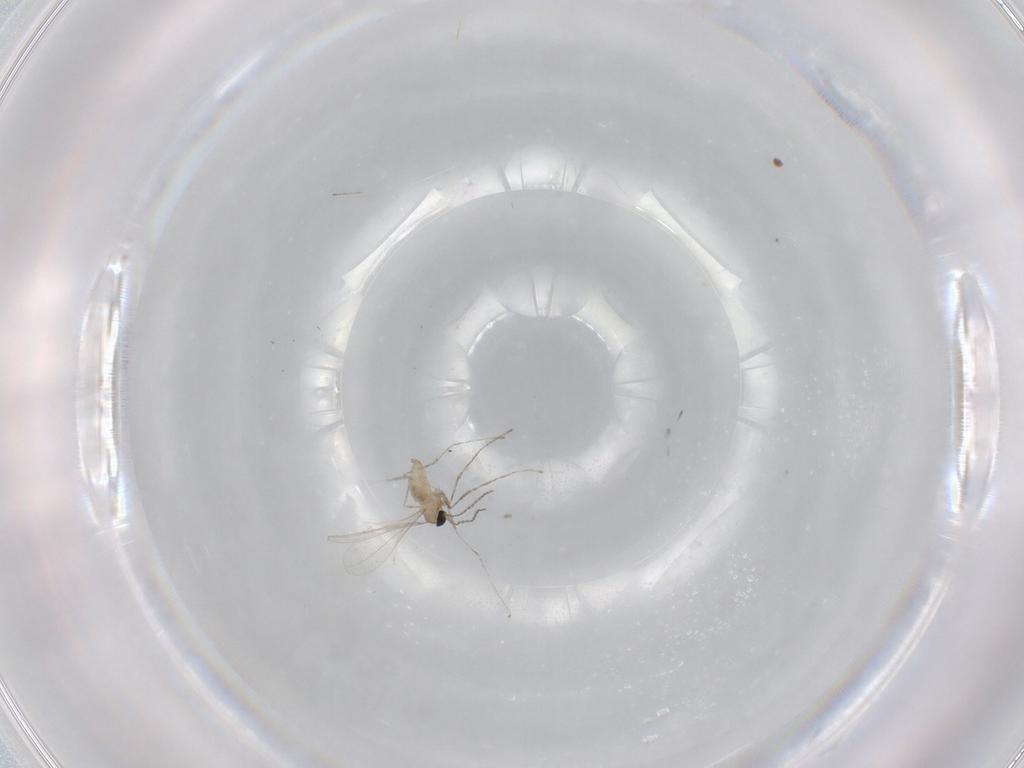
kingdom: Animalia
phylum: Arthropoda
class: Insecta
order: Diptera
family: Cecidomyiidae
